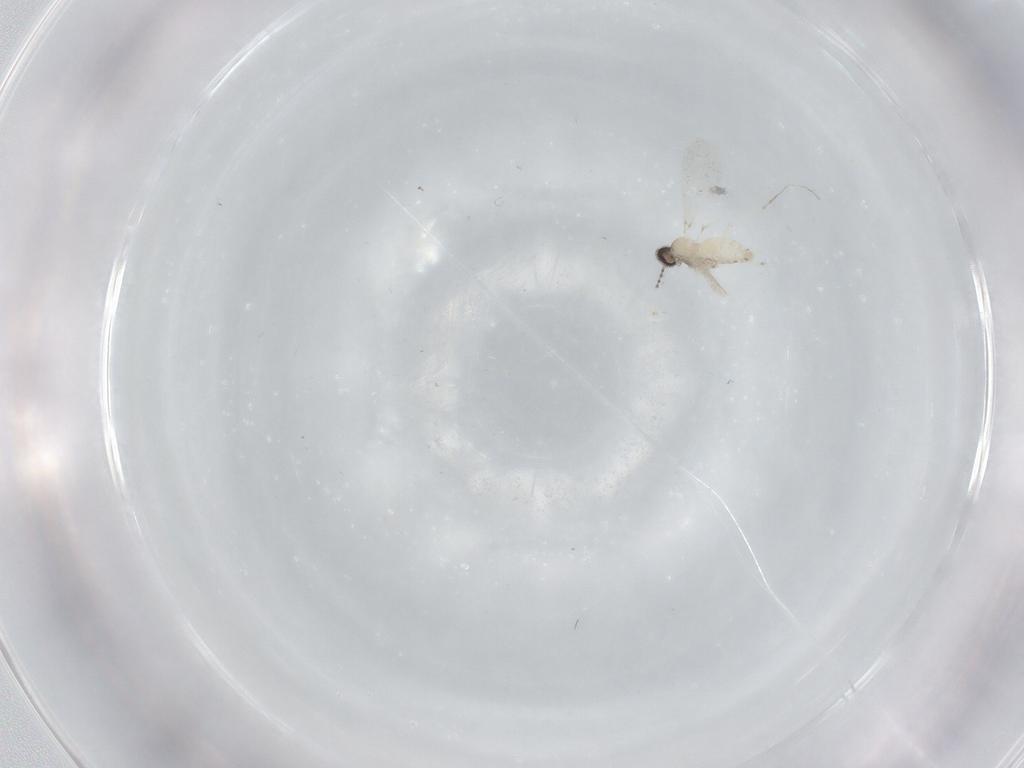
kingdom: Animalia
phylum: Arthropoda
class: Insecta
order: Diptera
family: Cecidomyiidae
